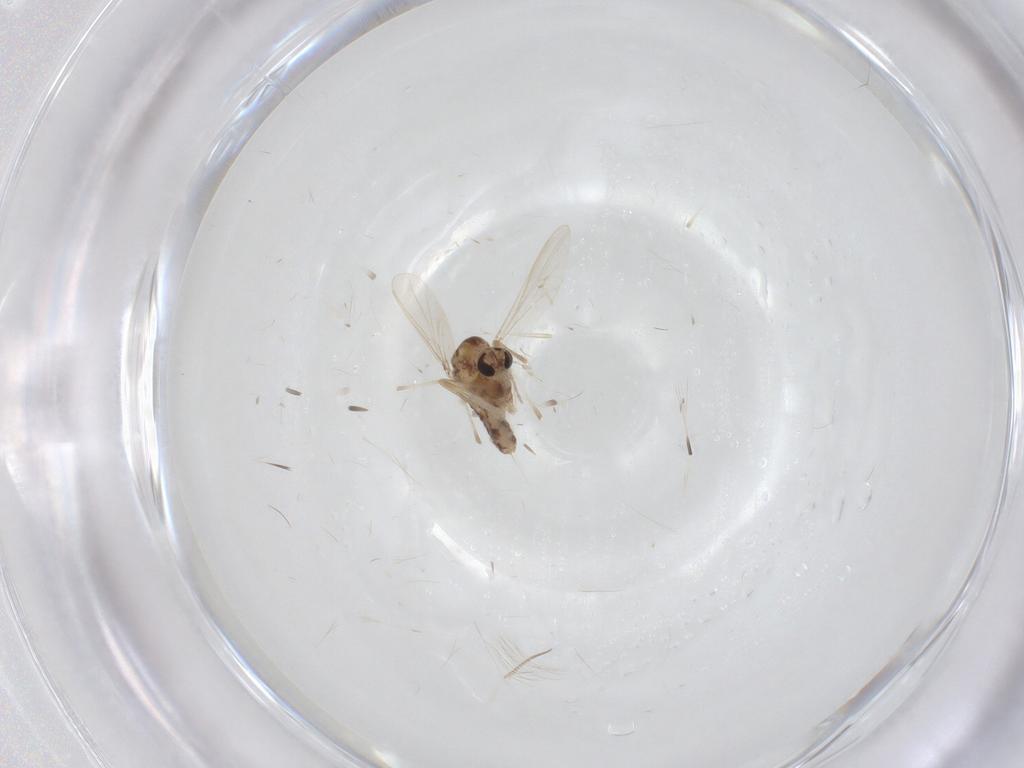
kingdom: Animalia
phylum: Arthropoda
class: Insecta
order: Diptera
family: Chironomidae
